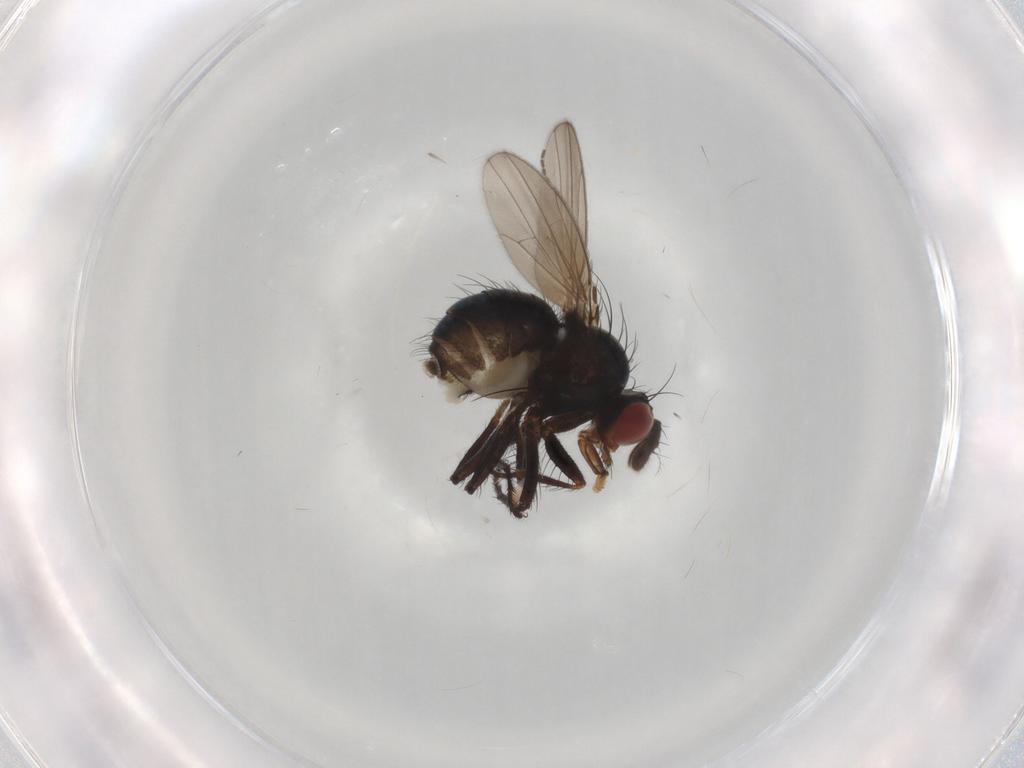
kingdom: Animalia
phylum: Arthropoda
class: Insecta
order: Diptera
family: Sciaridae
